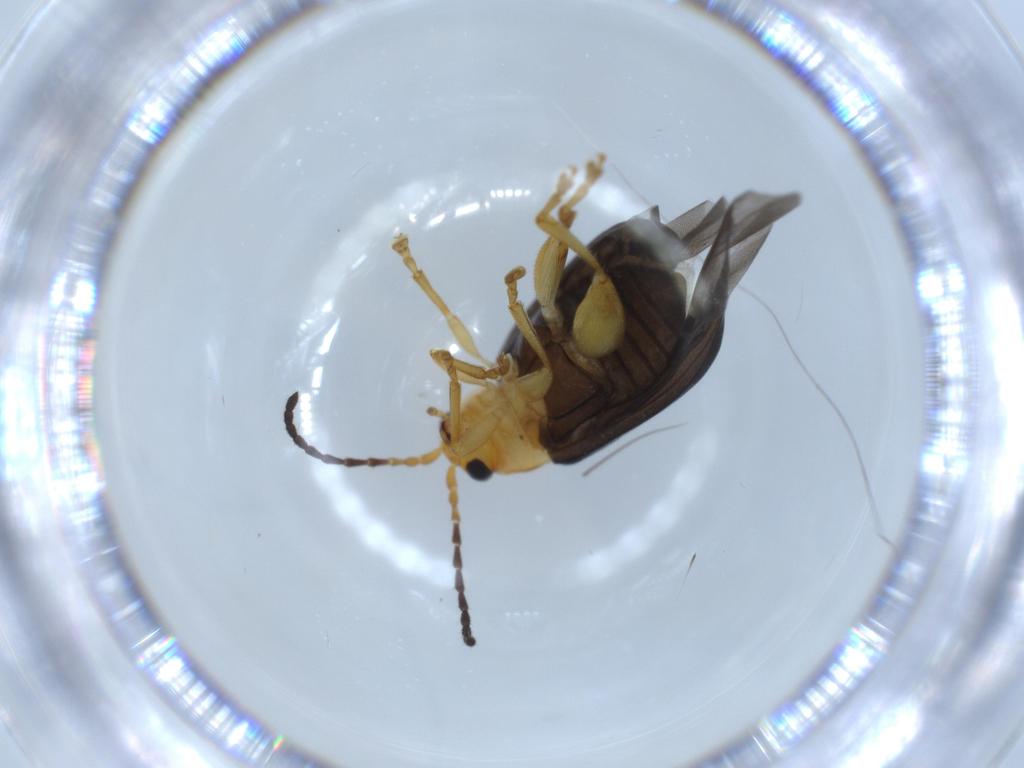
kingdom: Animalia
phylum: Arthropoda
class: Insecta
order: Coleoptera
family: Chrysomelidae
